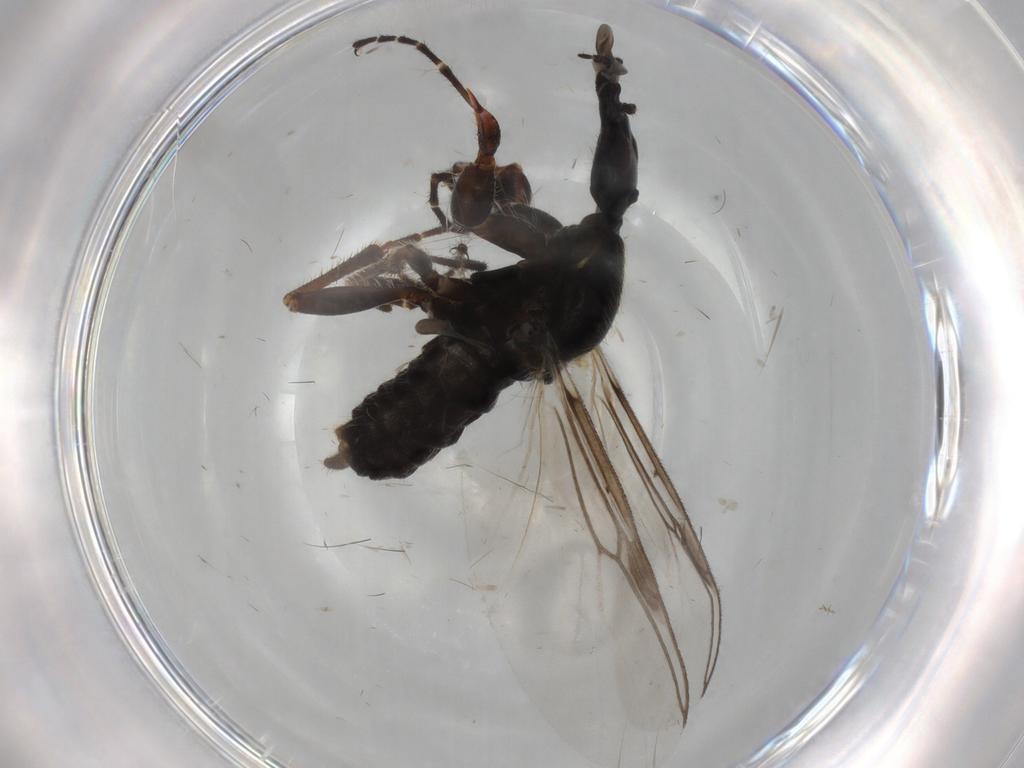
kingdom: Animalia
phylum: Arthropoda
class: Insecta
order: Diptera
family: Bibionidae
